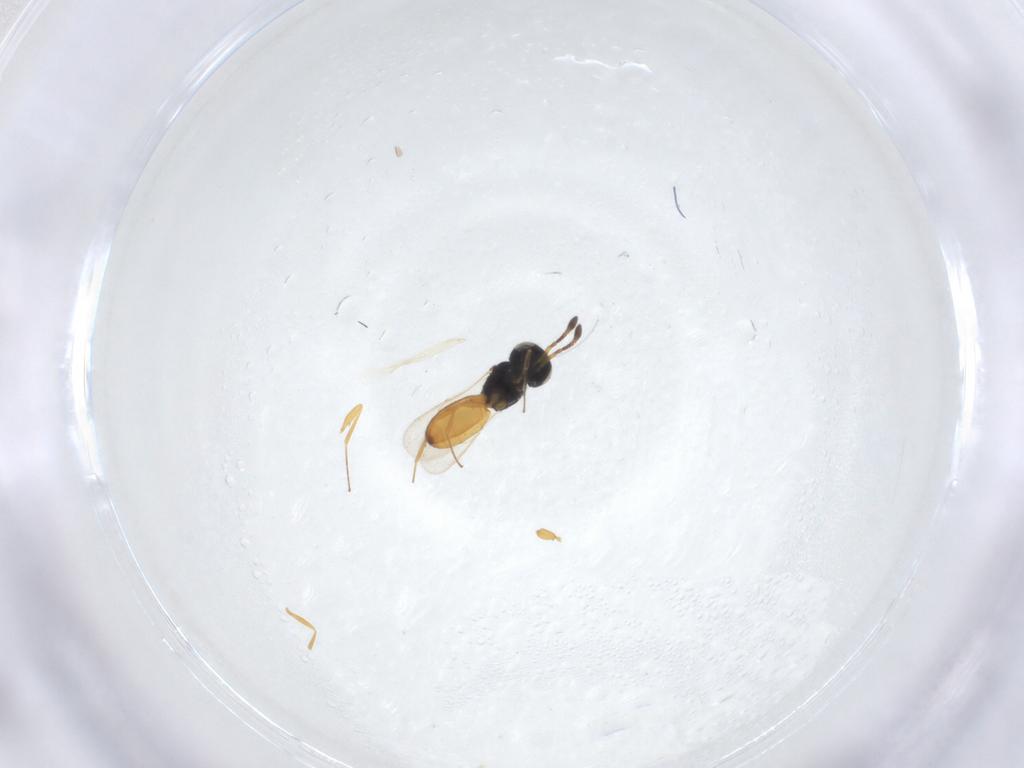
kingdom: Animalia
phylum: Arthropoda
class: Insecta
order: Hymenoptera
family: Scelionidae
